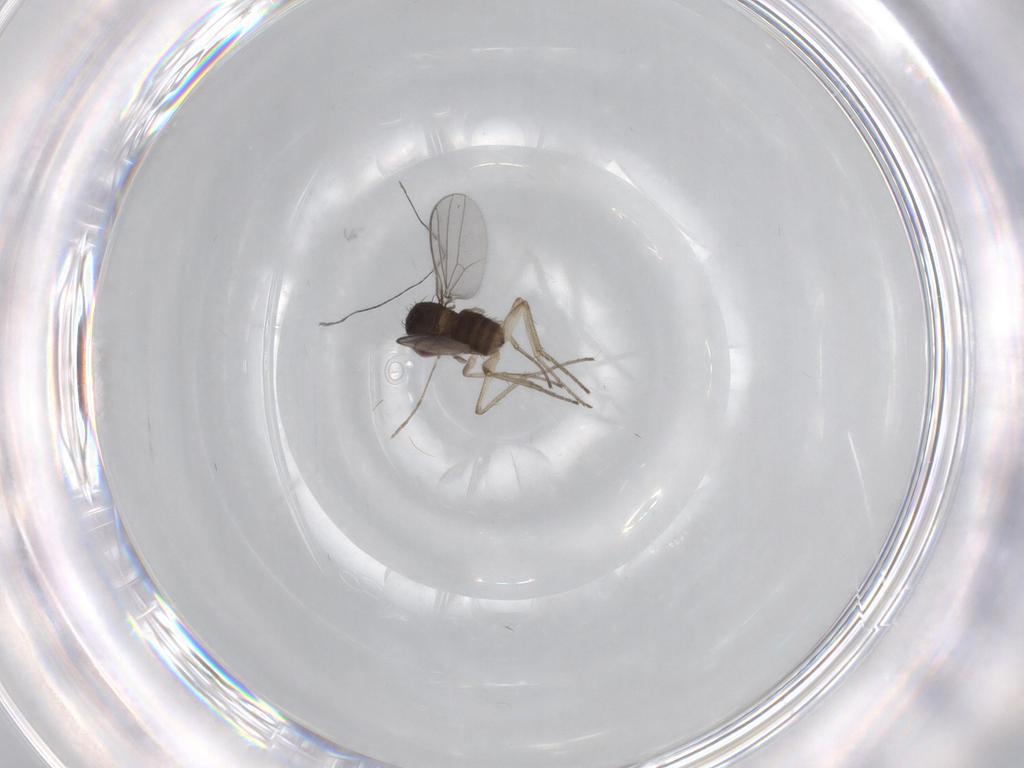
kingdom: Animalia
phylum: Arthropoda
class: Insecta
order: Diptera
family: Dolichopodidae
